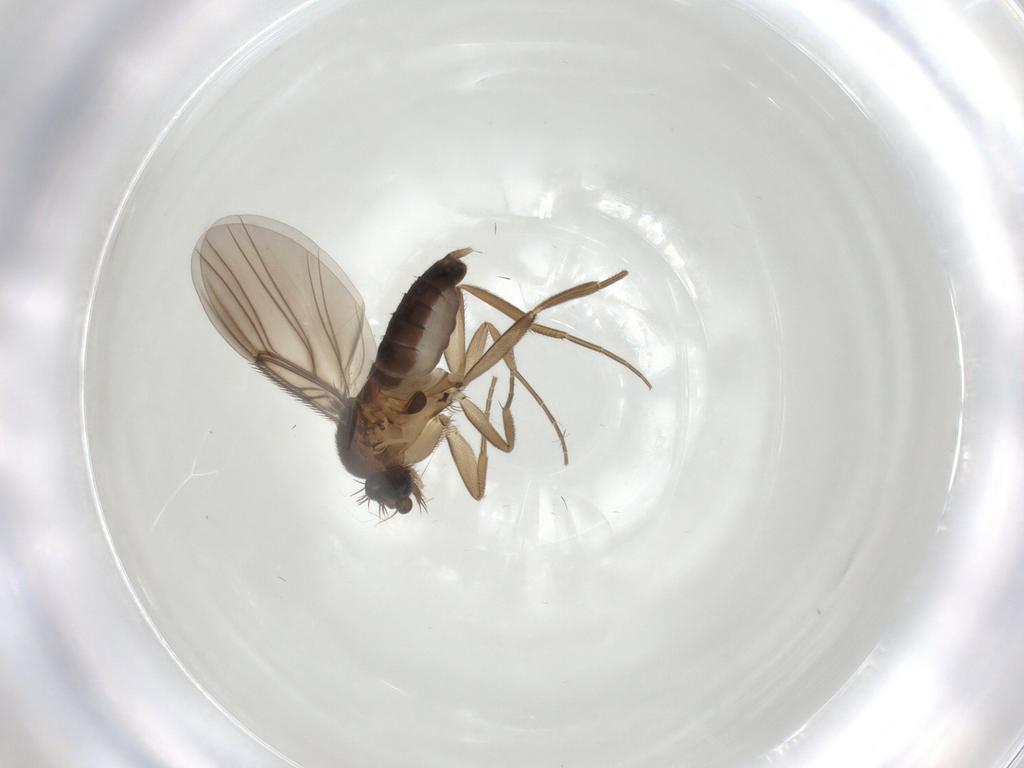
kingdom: Animalia
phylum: Arthropoda
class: Insecta
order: Diptera
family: Phoridae
